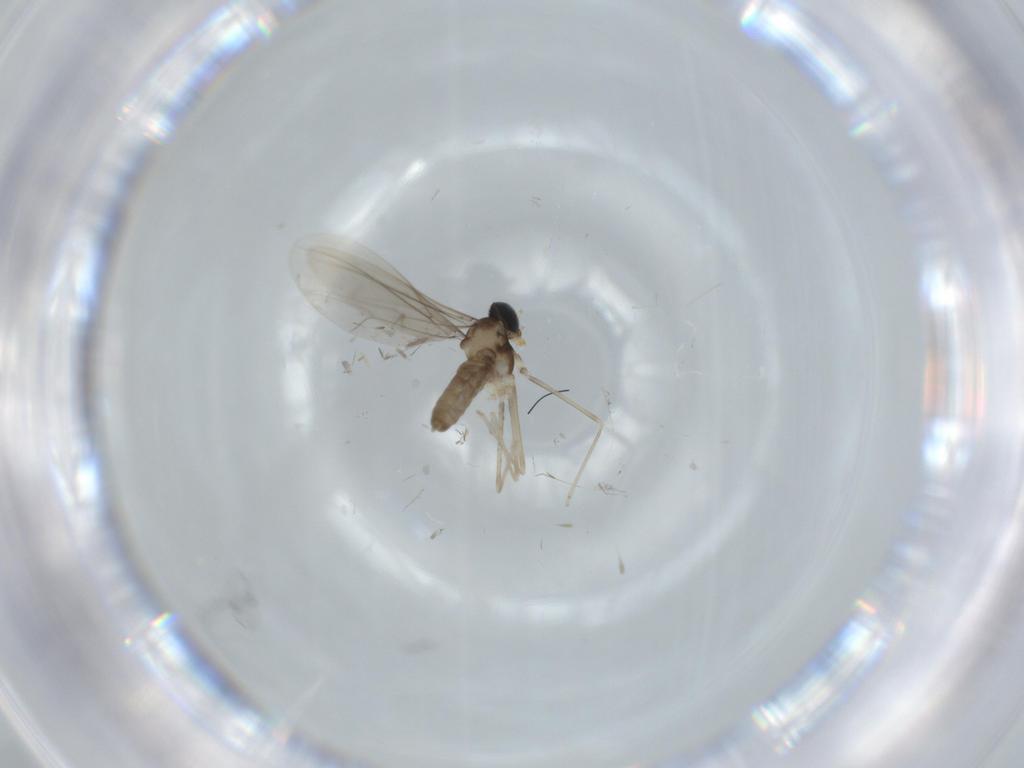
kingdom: Animalia
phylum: Arthropoda
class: Insecta
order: Diptera
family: Cecidomyiidae
